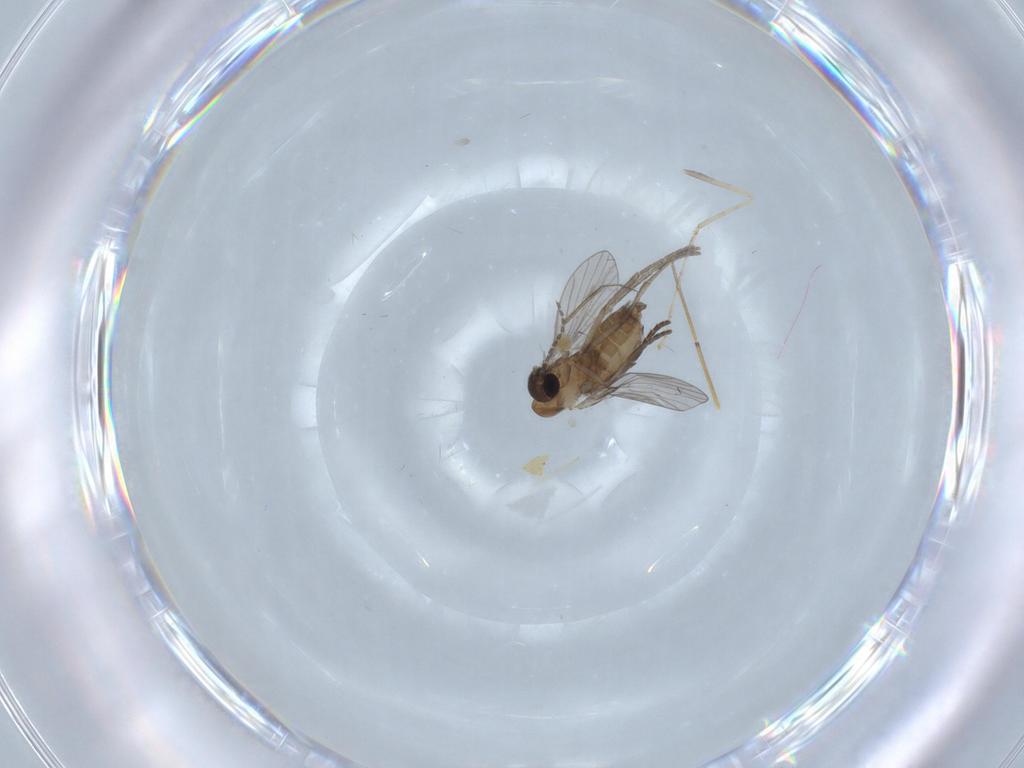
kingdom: Animalia
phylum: Arthropoda
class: Insecta
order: Diptera
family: Psychodidae
